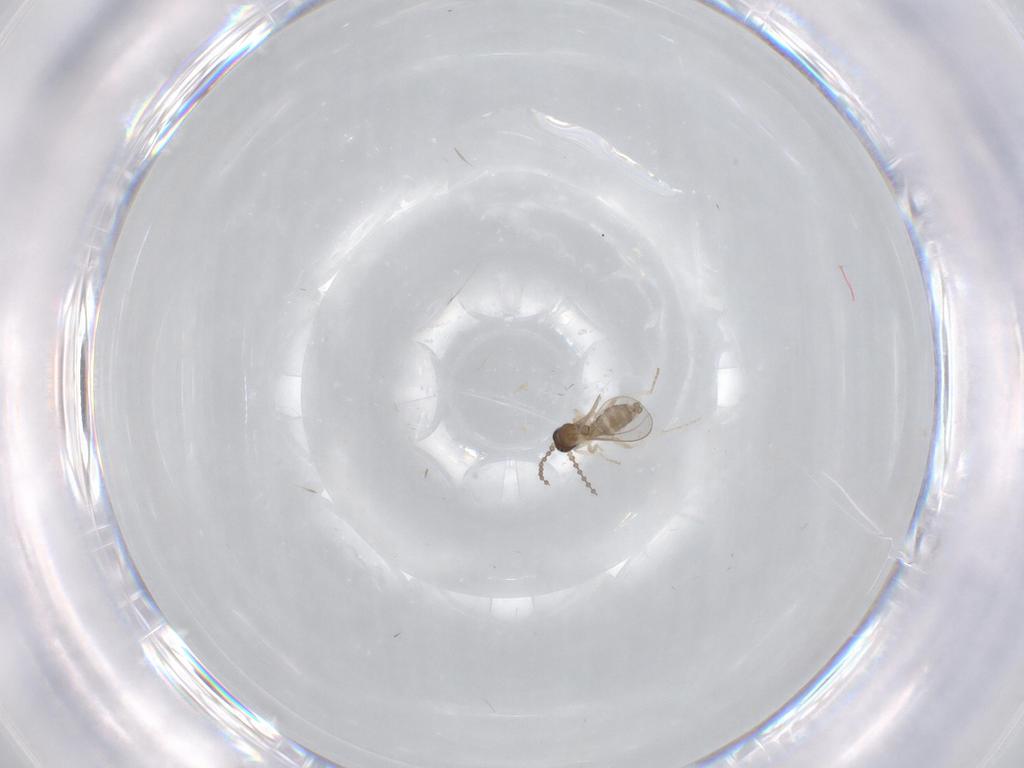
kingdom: Animalia
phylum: Arthropoda
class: Insecta
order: Diptera
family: Cecidomyiidae
